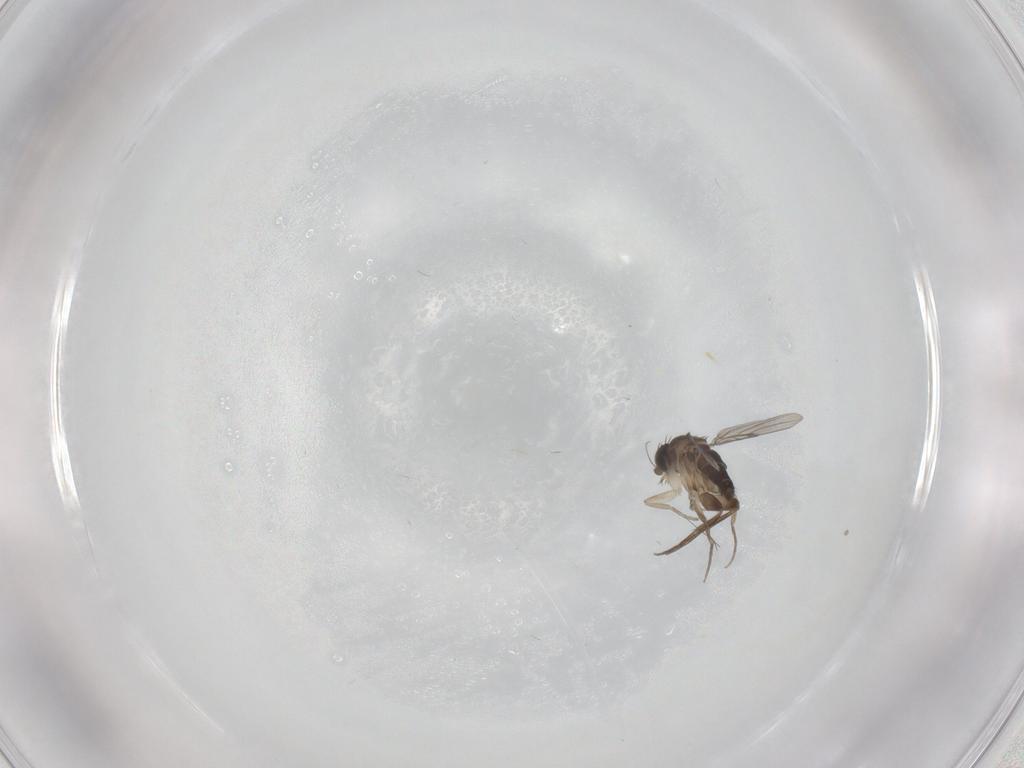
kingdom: Animalia
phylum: Arthropoda
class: Insecta
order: Diptera
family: Phoridae
